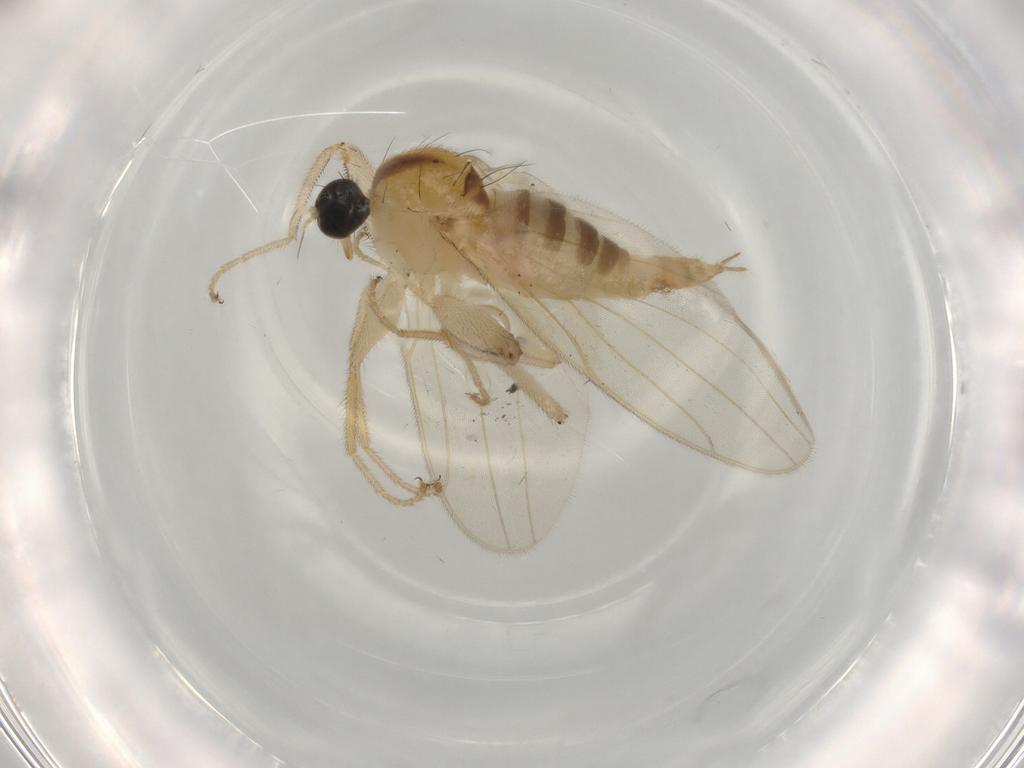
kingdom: Animalia
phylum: Arthropoda
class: Insecta
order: Diptera
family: Hybotidae
